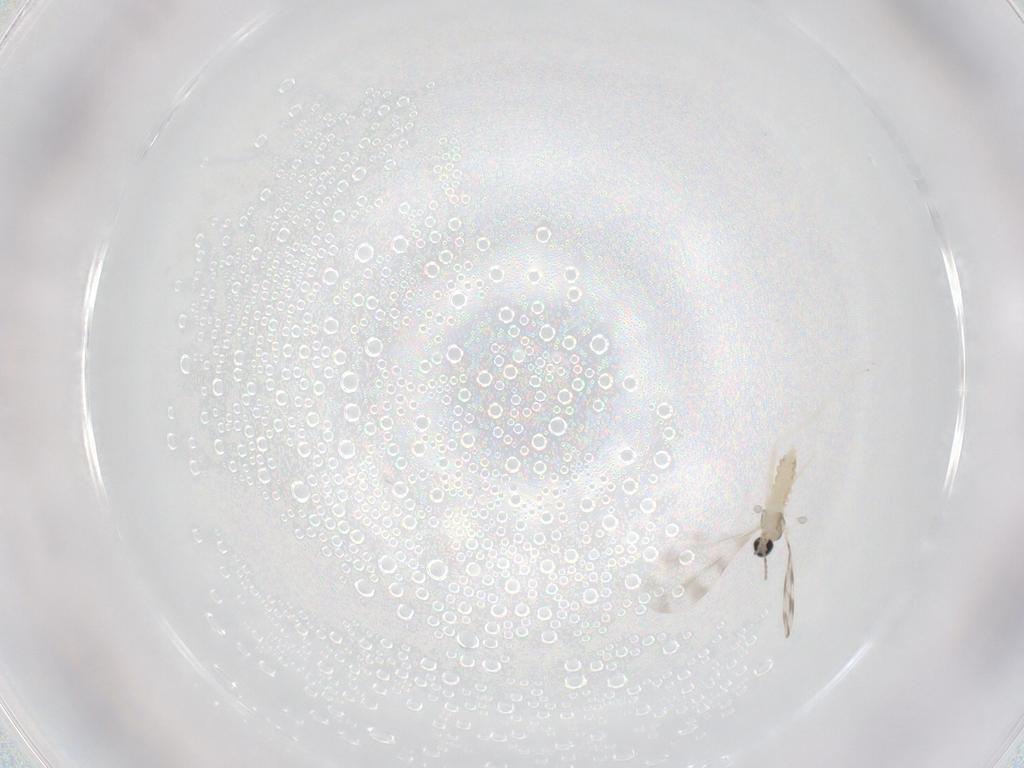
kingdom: Animalia
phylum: Arthropoda
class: Insecta
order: Diptera
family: Cecidomyiidae
